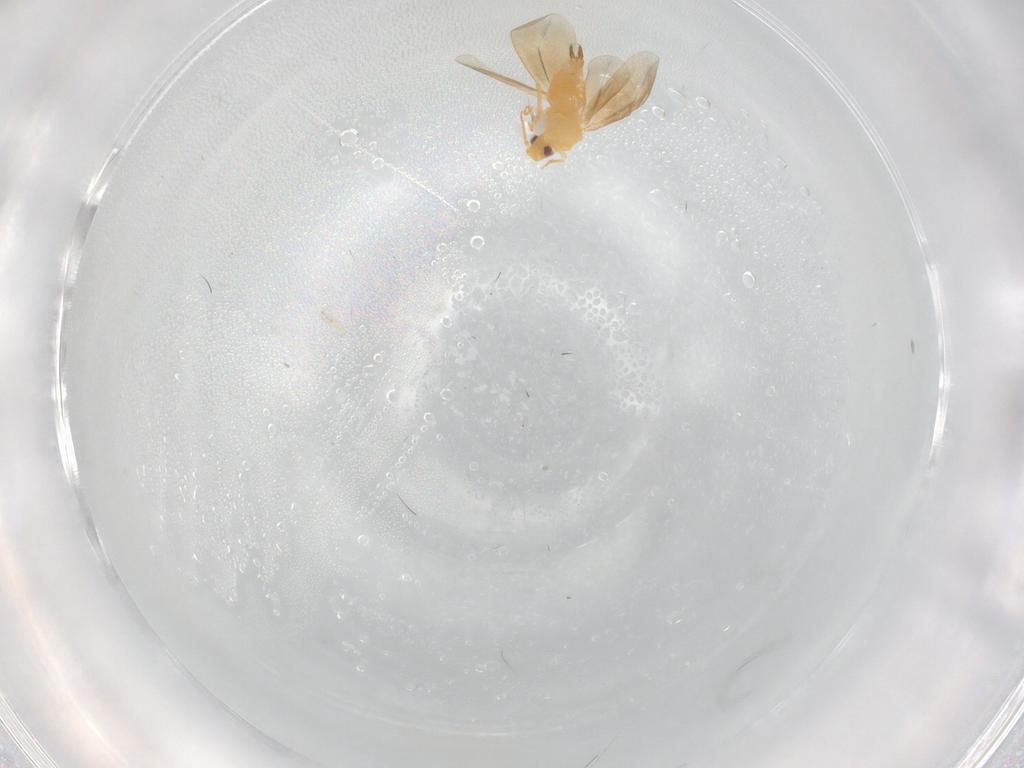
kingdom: Animalia
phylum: Arthropoda
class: Insecta
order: Hemiptera
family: Aleyrodidae
